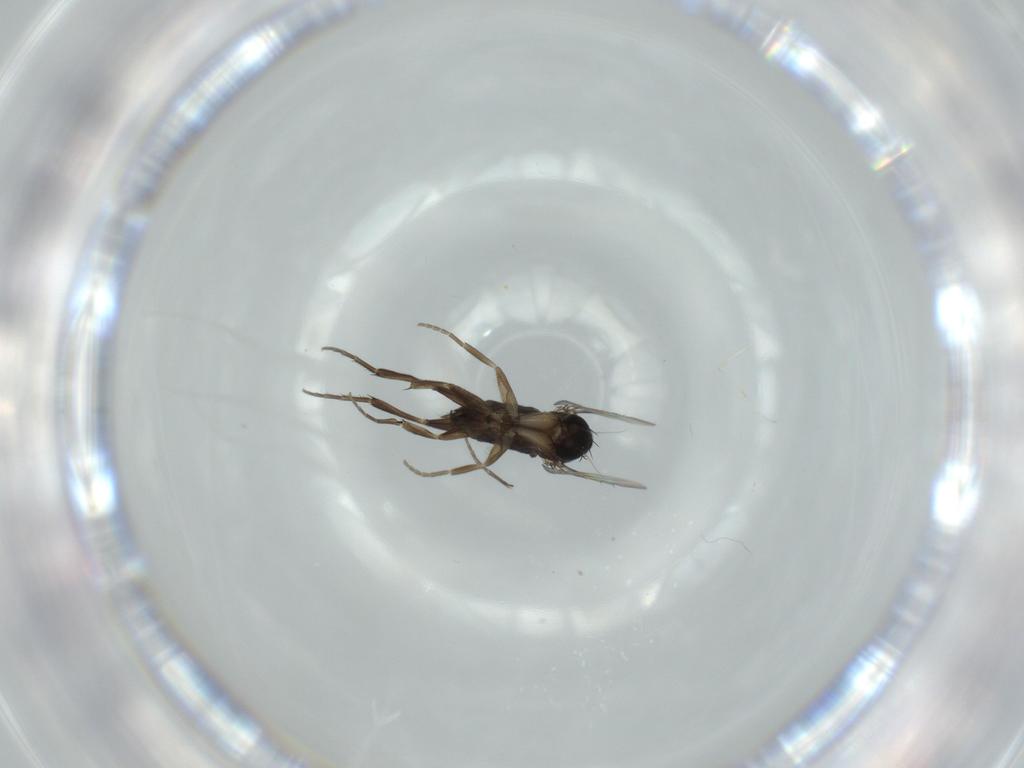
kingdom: Animalia
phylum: Arthropoda
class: Insecta
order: Diptera
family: Phoridae
